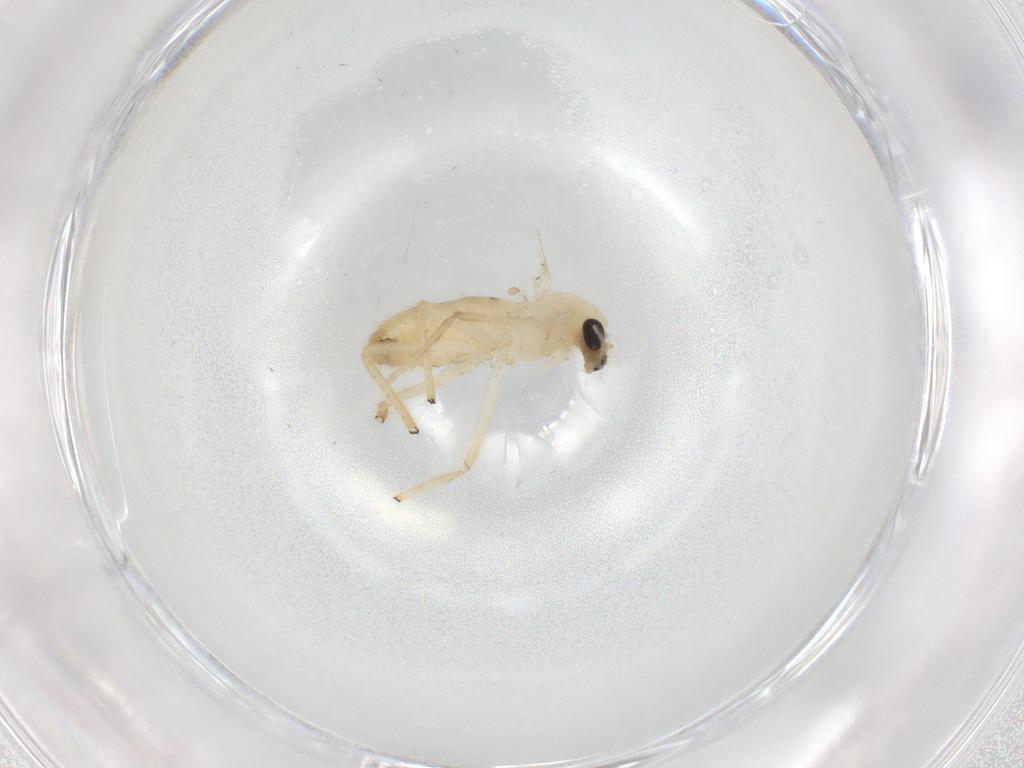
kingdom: Animalia
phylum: Arthropoda
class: Insecta
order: Diptera
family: Chironomidae
